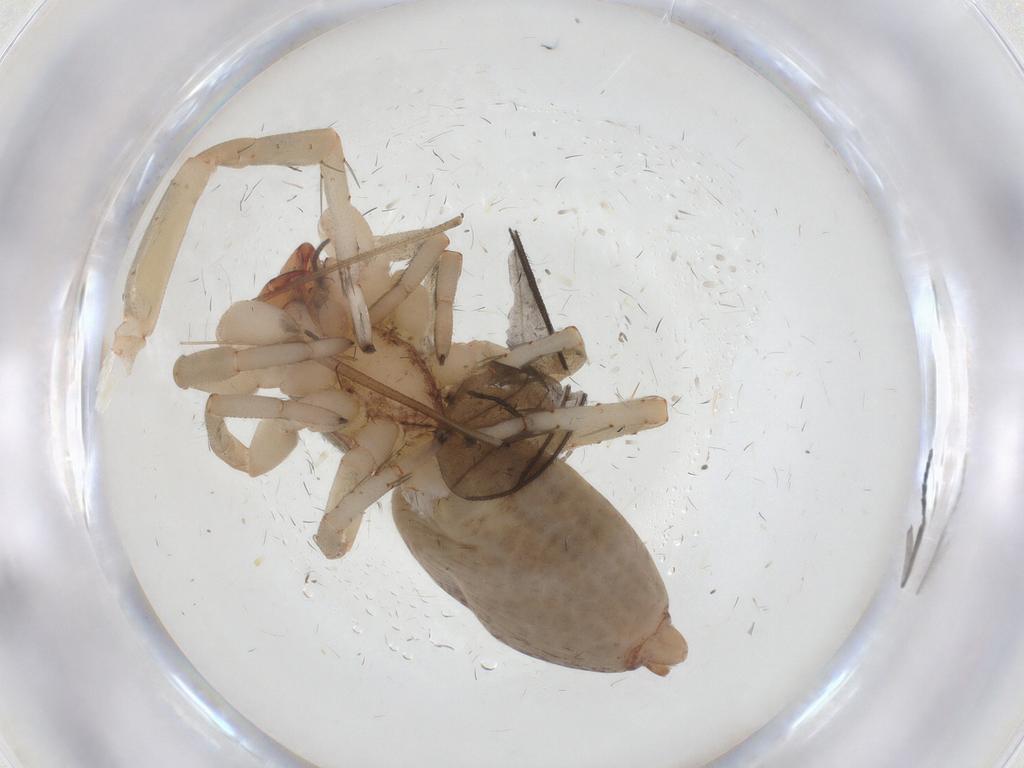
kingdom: Animalia
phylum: Arthropoda
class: Arachnida
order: Araneae
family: Clubionidae
